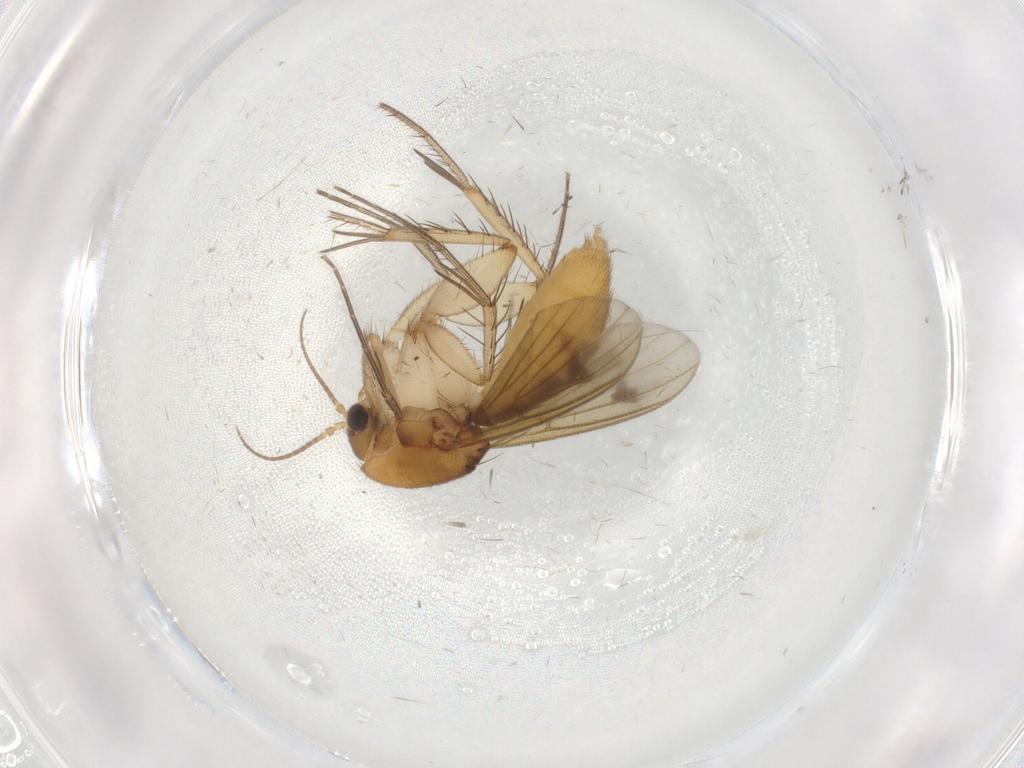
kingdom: Animalia
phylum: Arthropoda
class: Insecta
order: Diptera
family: Mycetophilidae
